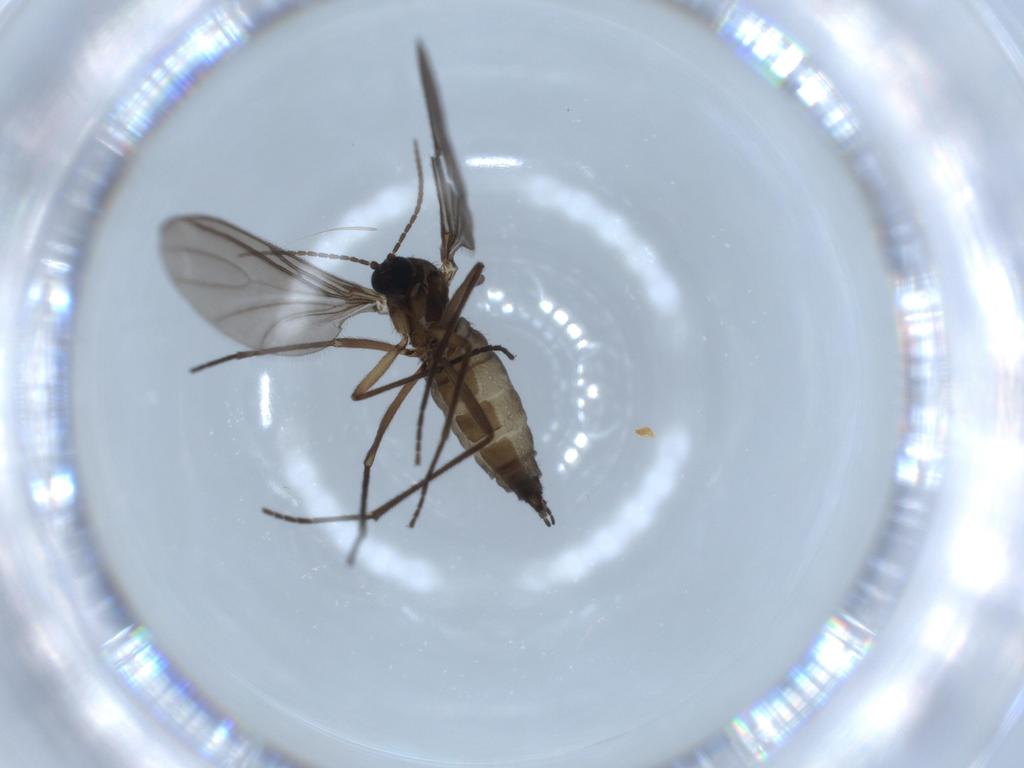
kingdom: Animalia
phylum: Arthropoda
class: Insecta
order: Diptera
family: Sciaridae
